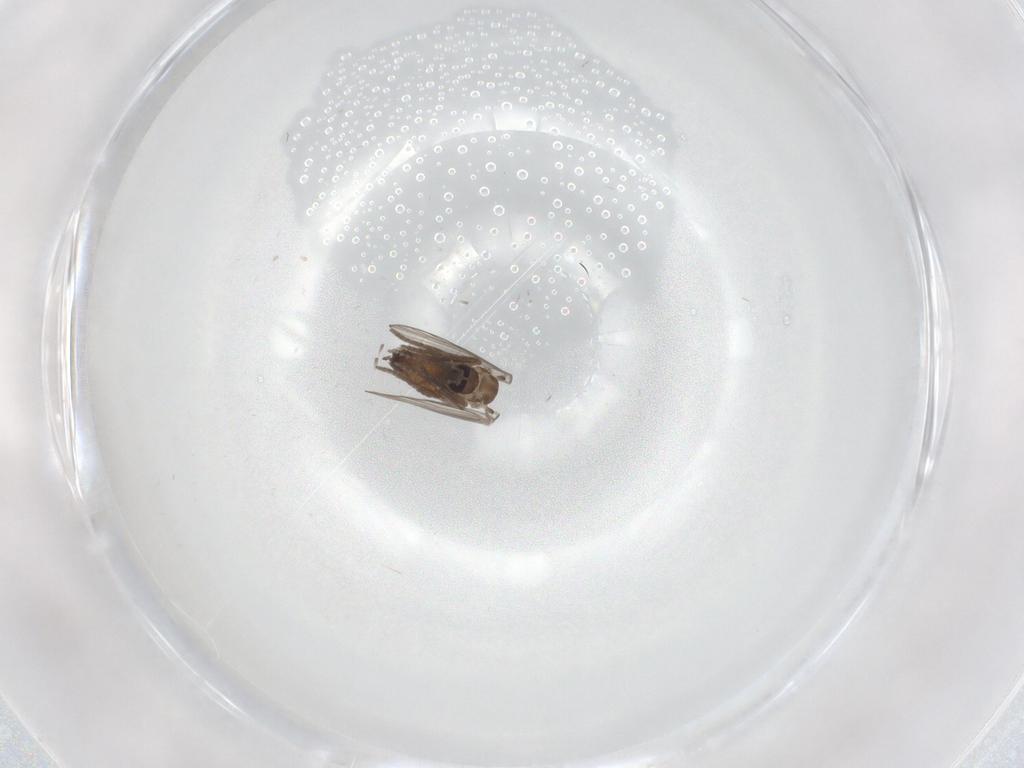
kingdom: Animalia
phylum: Arthropoda
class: Insecta
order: Diptera
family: Psychodidae
